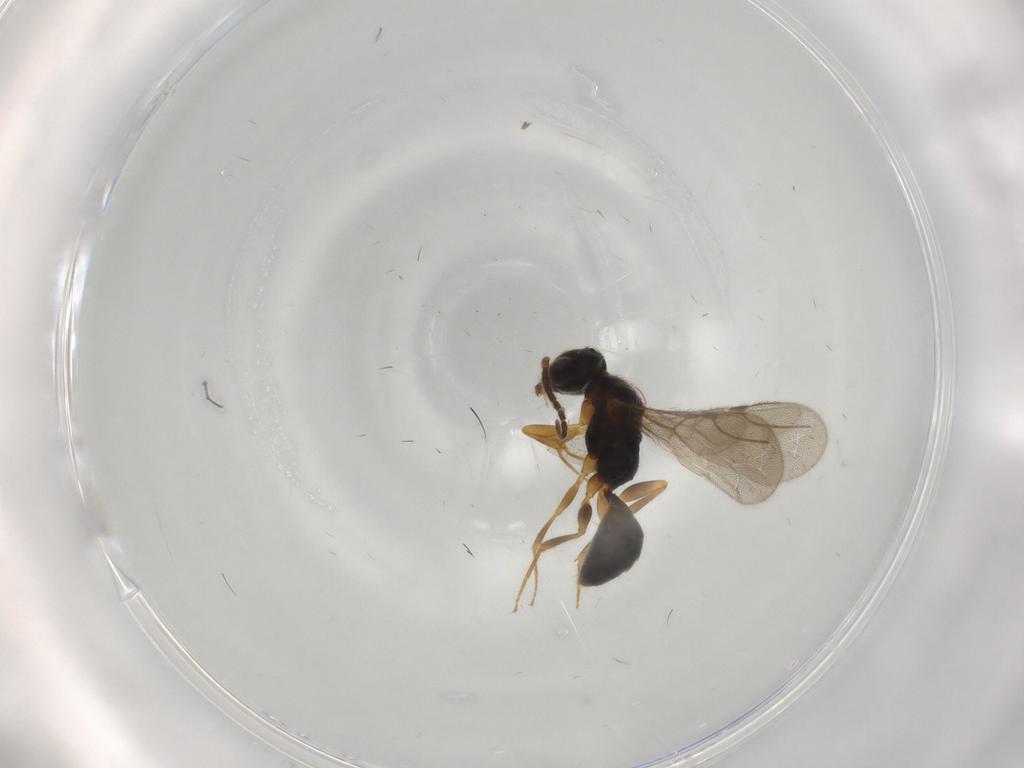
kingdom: Animalia
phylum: Arthropoda
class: Insecta
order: Hymenoptera
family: Bethylidae
